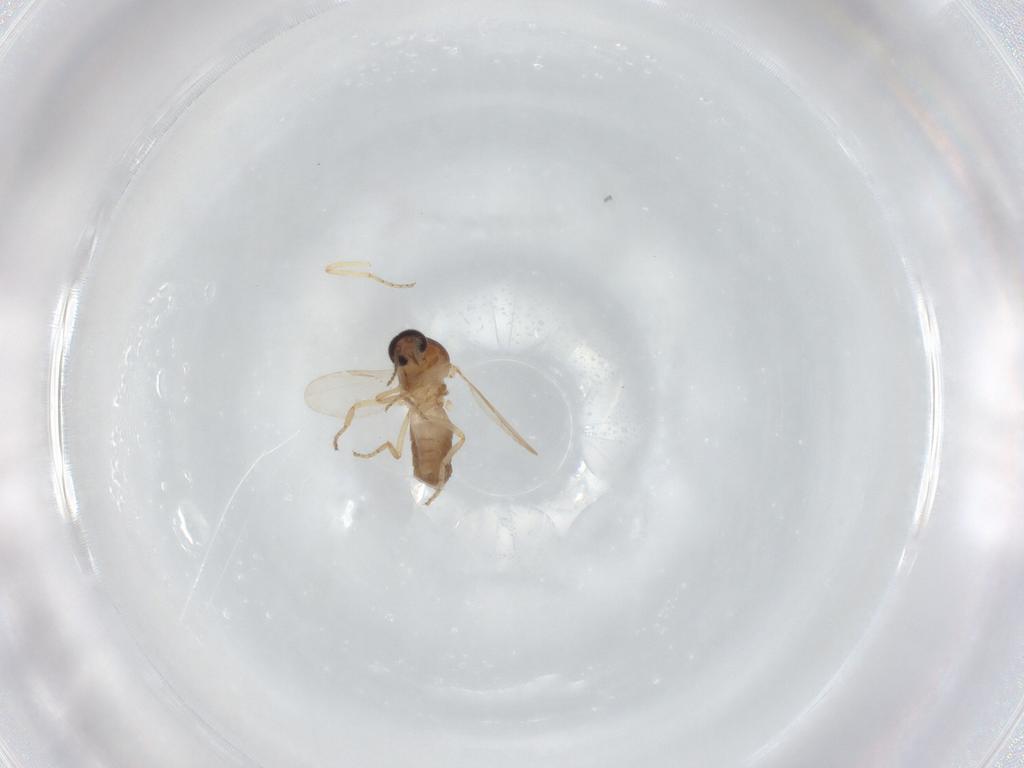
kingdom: Animalia
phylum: Arthropoda
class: Insecta
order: Diptera
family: Ceratopogonidae
